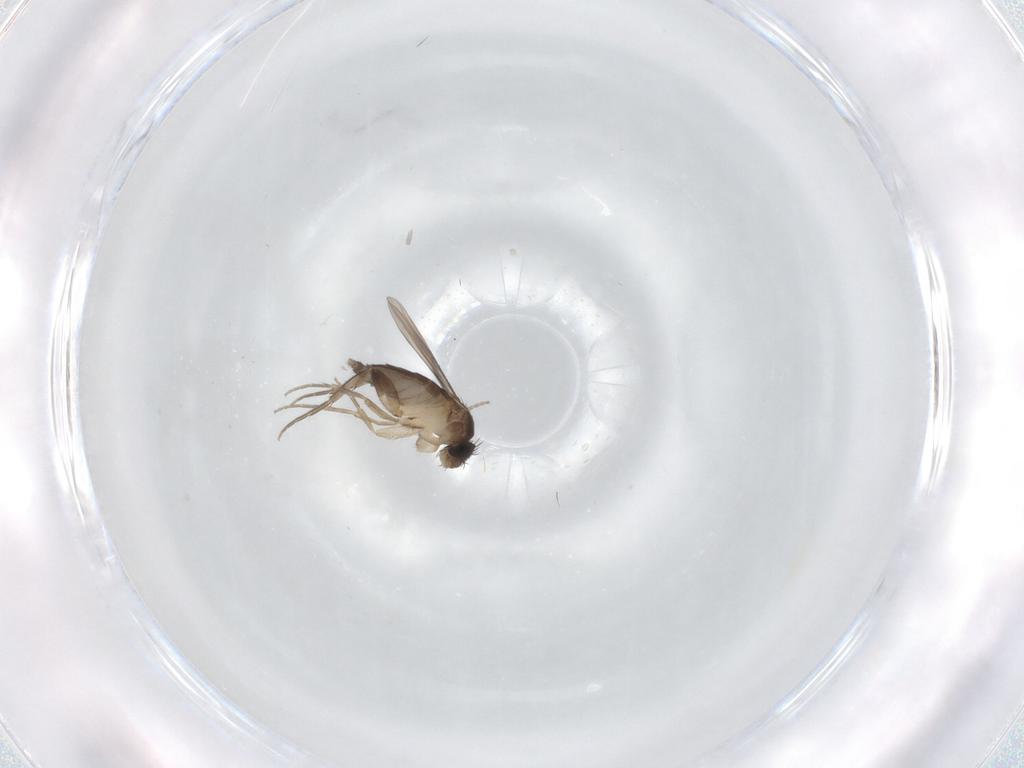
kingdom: Animalia
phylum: Arthropoda
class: Insecta
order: Diptera
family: Phoridae
